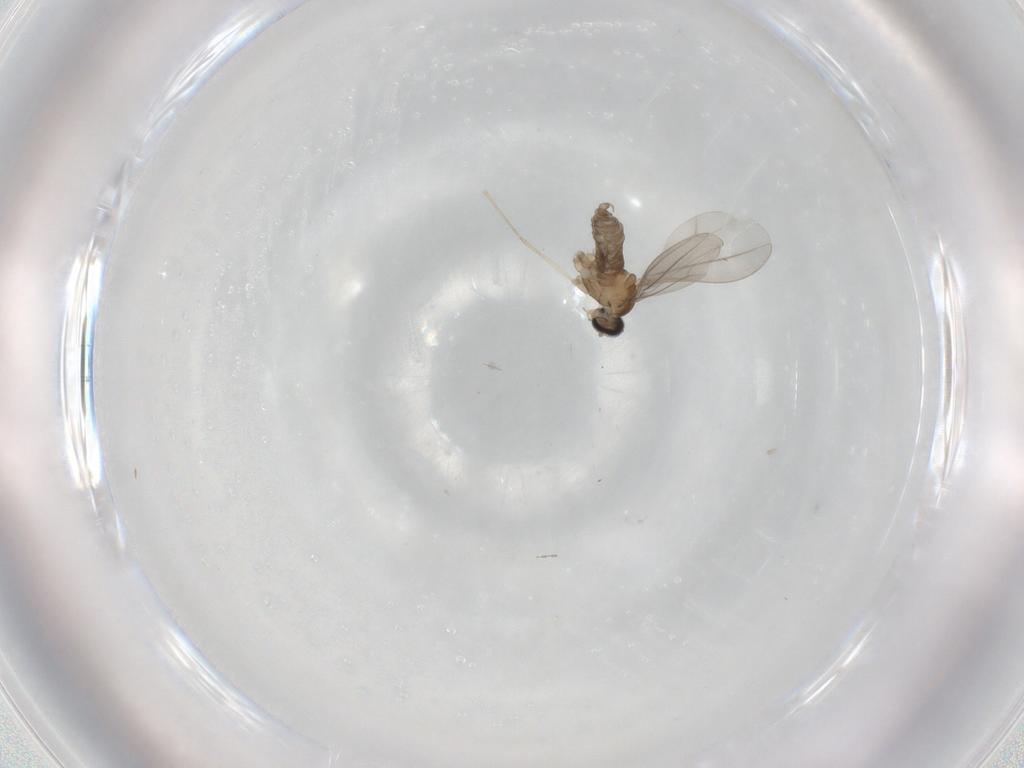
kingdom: Animalia
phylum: Arthropoda
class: Insecta
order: Diptera
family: Cecidomyiidae
